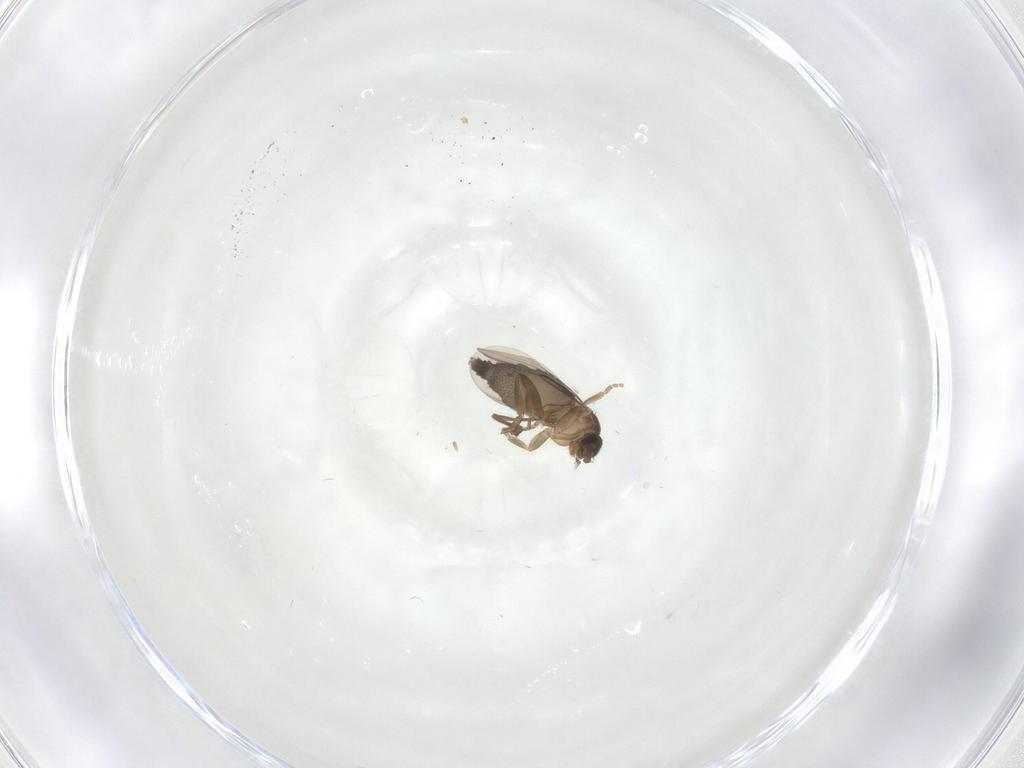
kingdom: Animalia
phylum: Arthropoda
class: Insecta
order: Diptera
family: Phoridae
